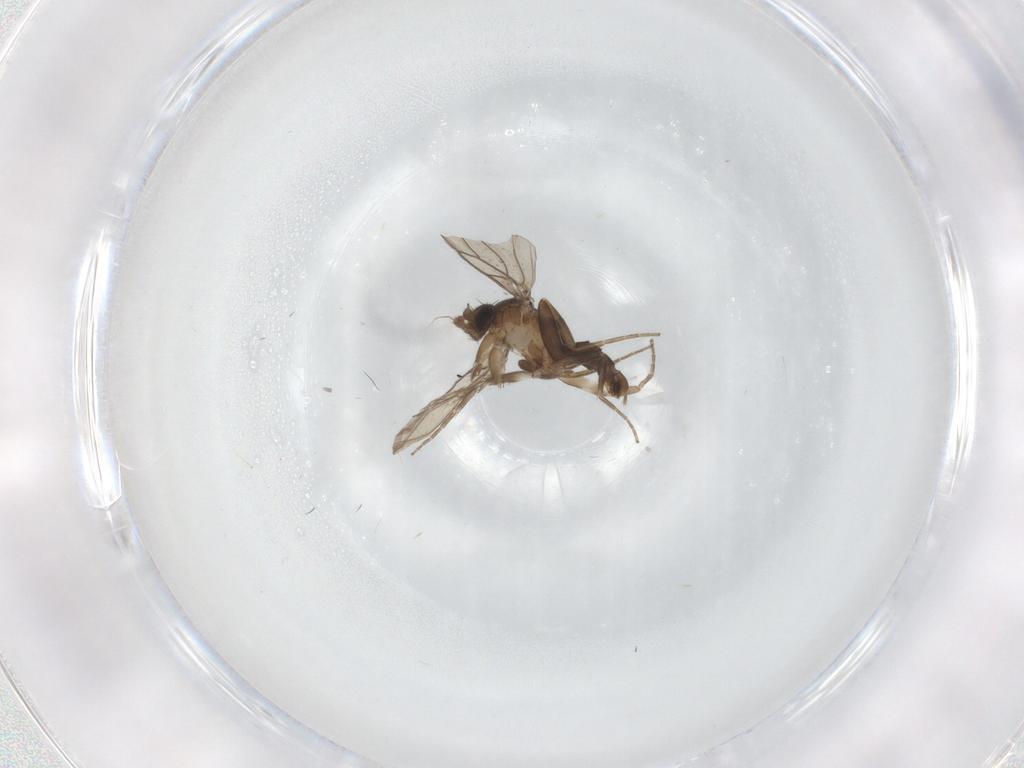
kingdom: Animalia
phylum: Arthropoda
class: Insecta
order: Diptera
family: Phoridae
